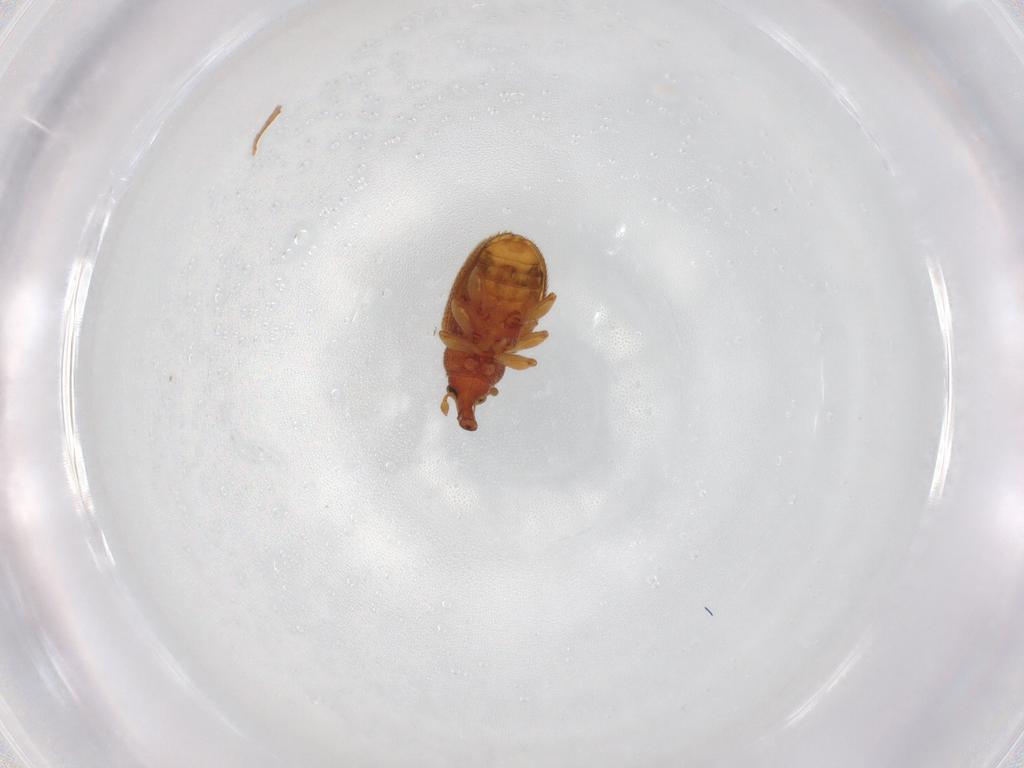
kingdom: Animalia
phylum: Arthropoda
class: Insecta
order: Coleoptera
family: Curculionidae
